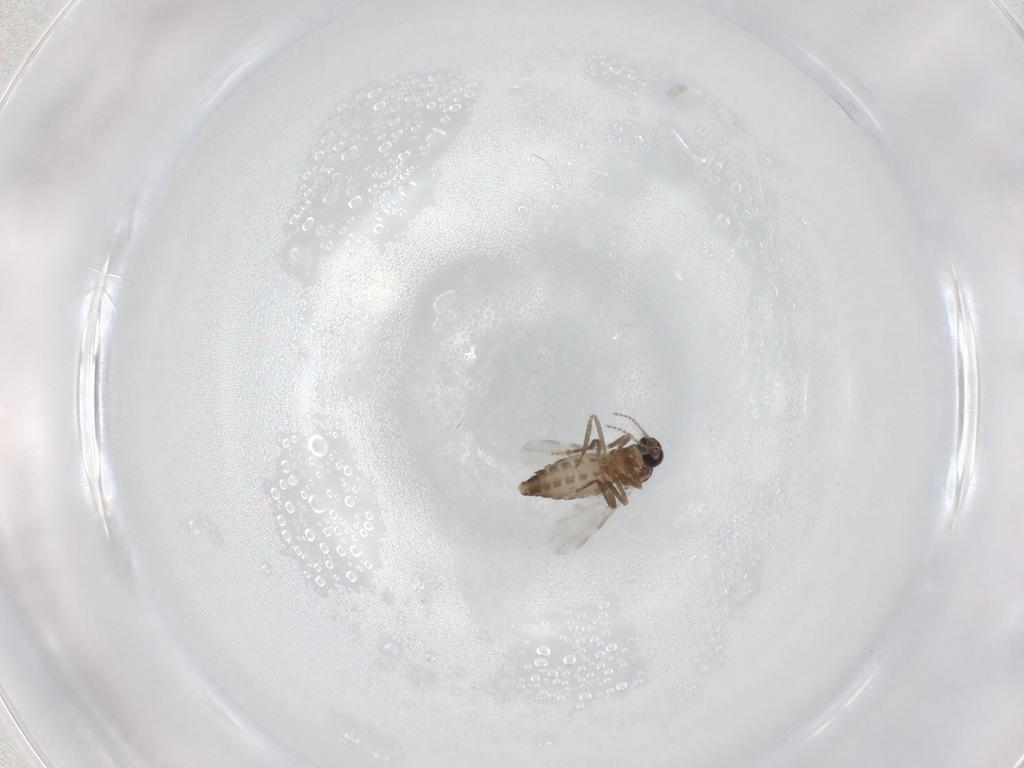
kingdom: Animalia
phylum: Arthropoda
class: Insecta
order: Diptera
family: Ceratopogonidae
